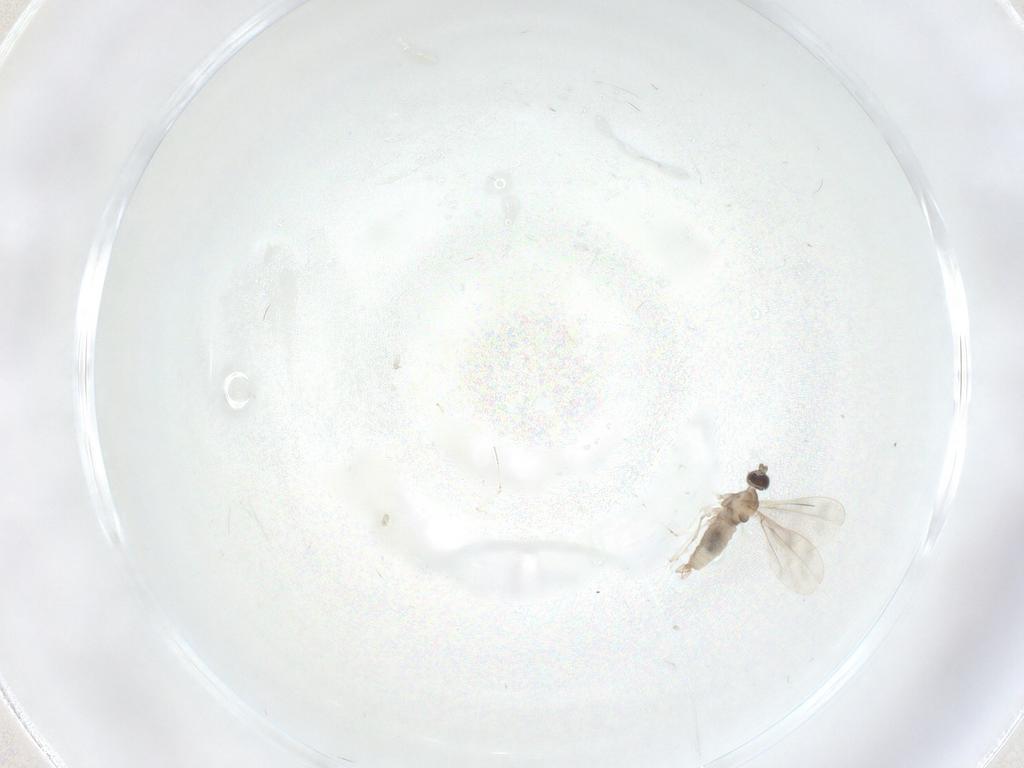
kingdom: Animalia
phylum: Arthropoda
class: Insecta
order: Diptera
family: Cecidomyiidae
